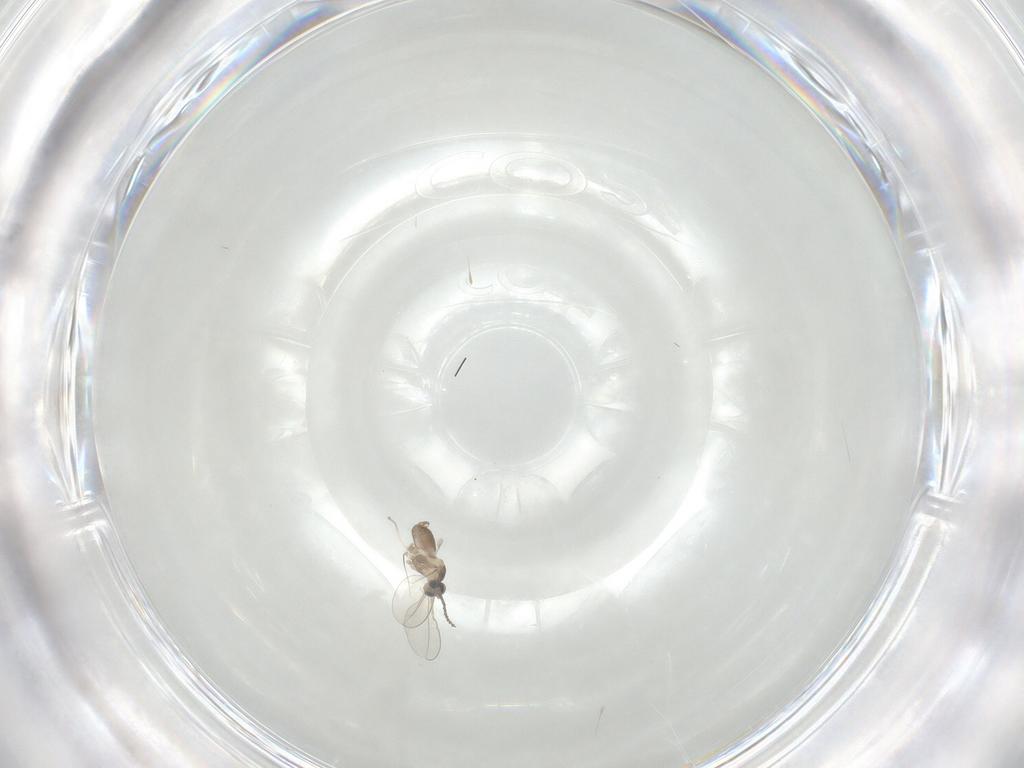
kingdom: Animalia
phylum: Arthropoda
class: Insecta
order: Diptera
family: Cecidomyiidae
